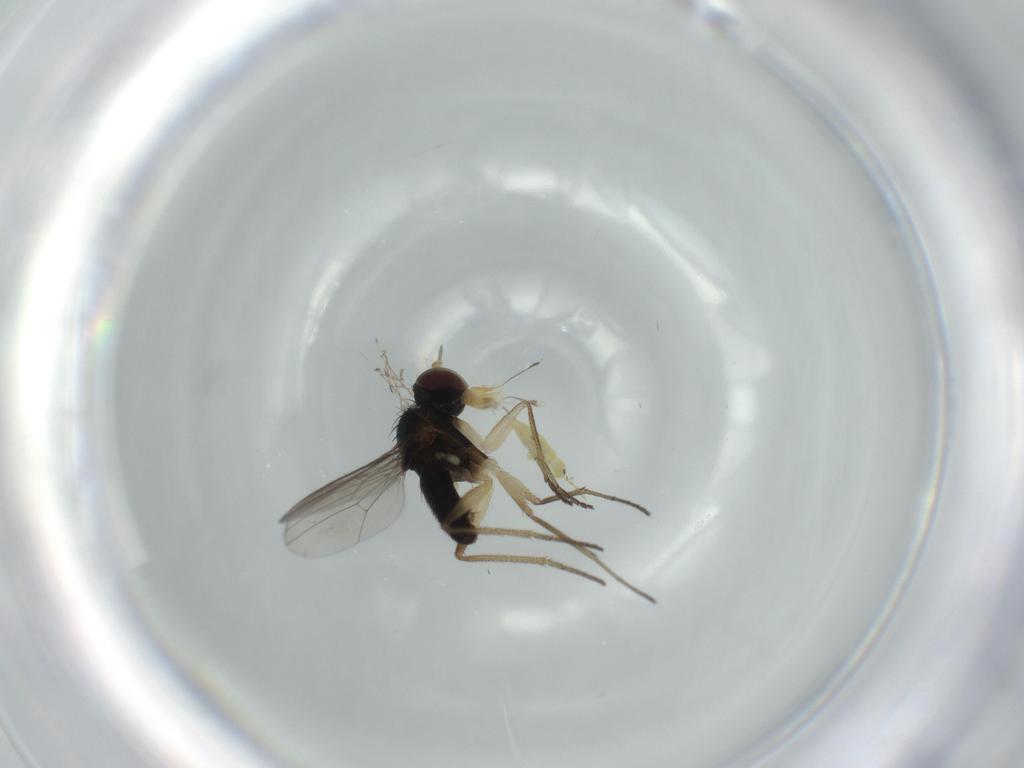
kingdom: Animalia
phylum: Arthropoda
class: Insecta
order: Diptera
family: Dolichopodidae
